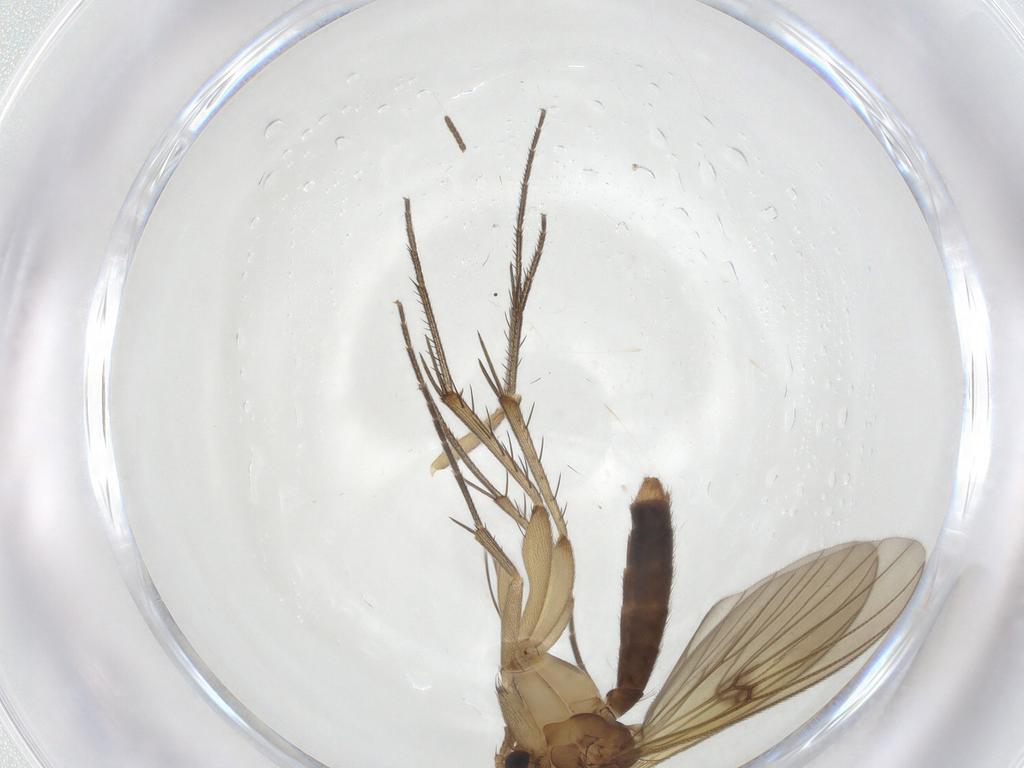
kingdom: Animalia
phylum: Arthropoda
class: Insecta
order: Diptera
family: Mycetophilidae
